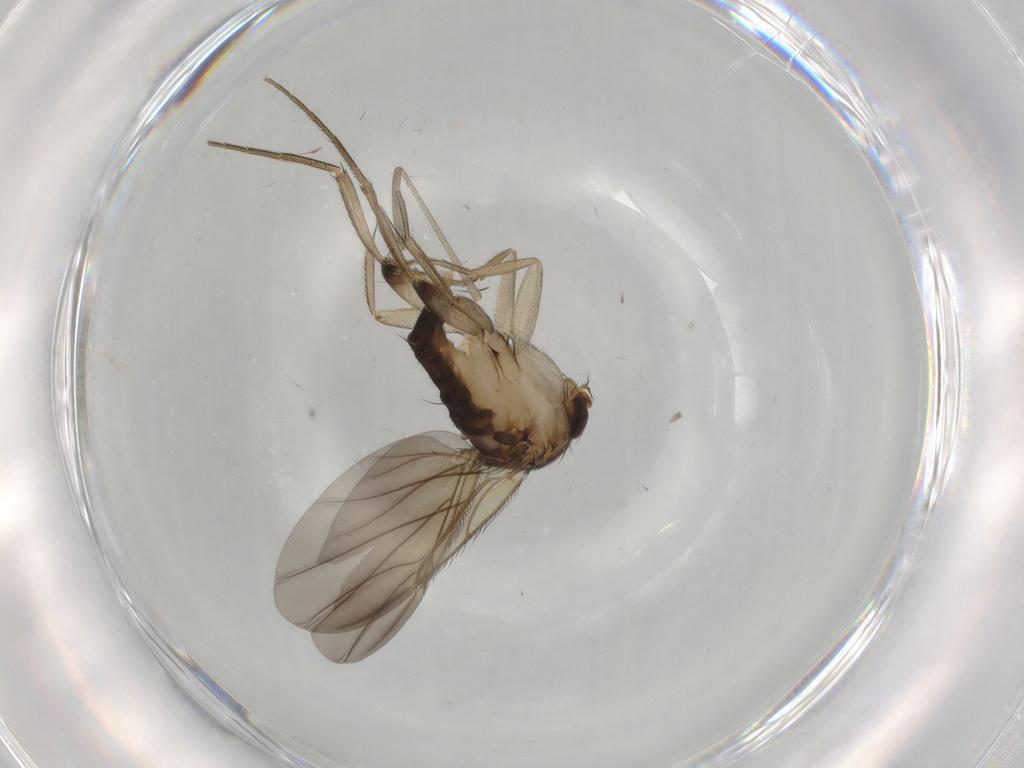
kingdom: Animalia
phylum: Arthropoda
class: Insecta
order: Diptera
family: Phoridae
